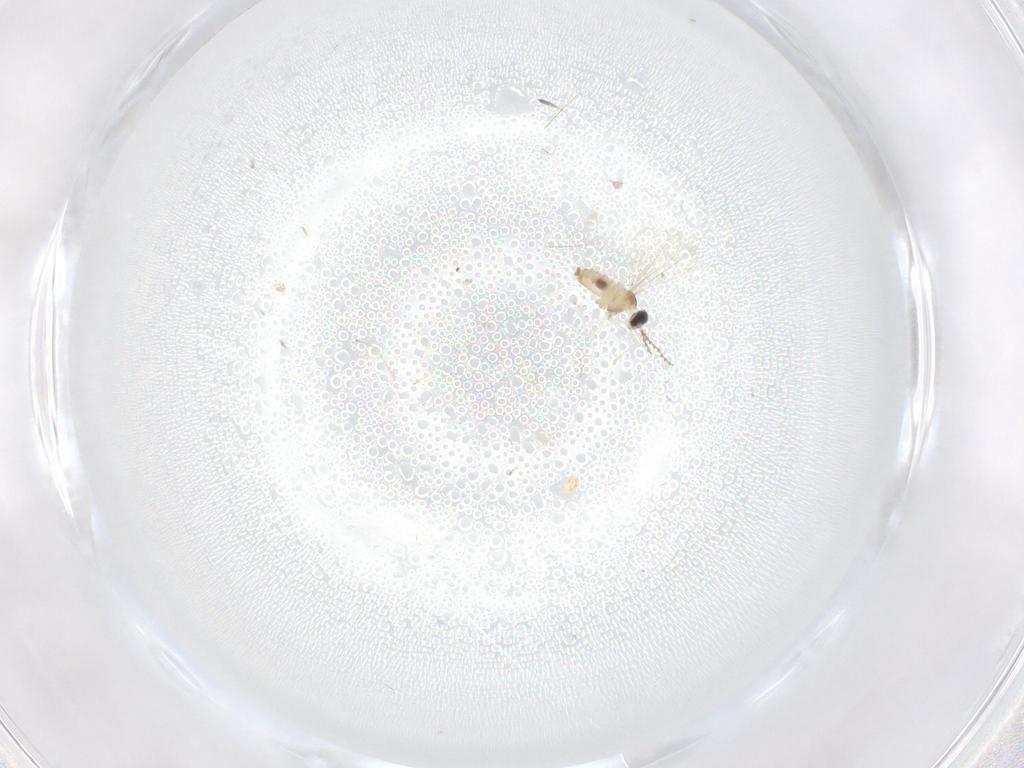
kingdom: Animalia
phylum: Arthropoda
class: Insecta
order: Diptera
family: Cecidomyiidae
